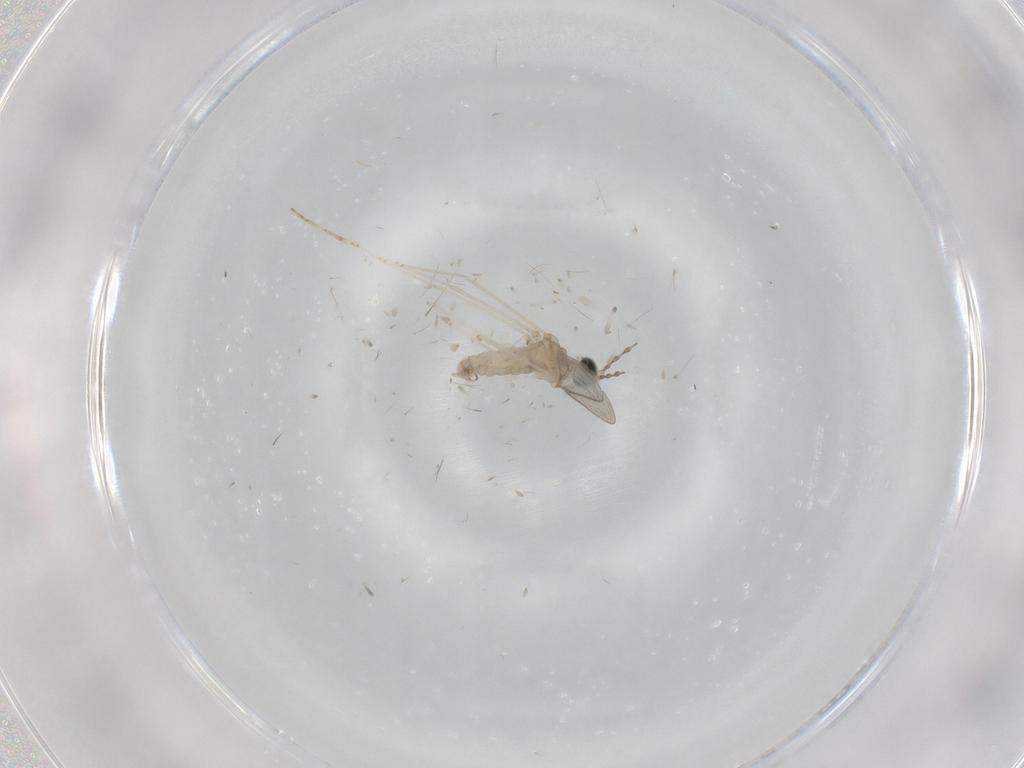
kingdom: Animalia
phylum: Arthropoda
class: Insecta
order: Diptera
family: Cecidomyiidae
